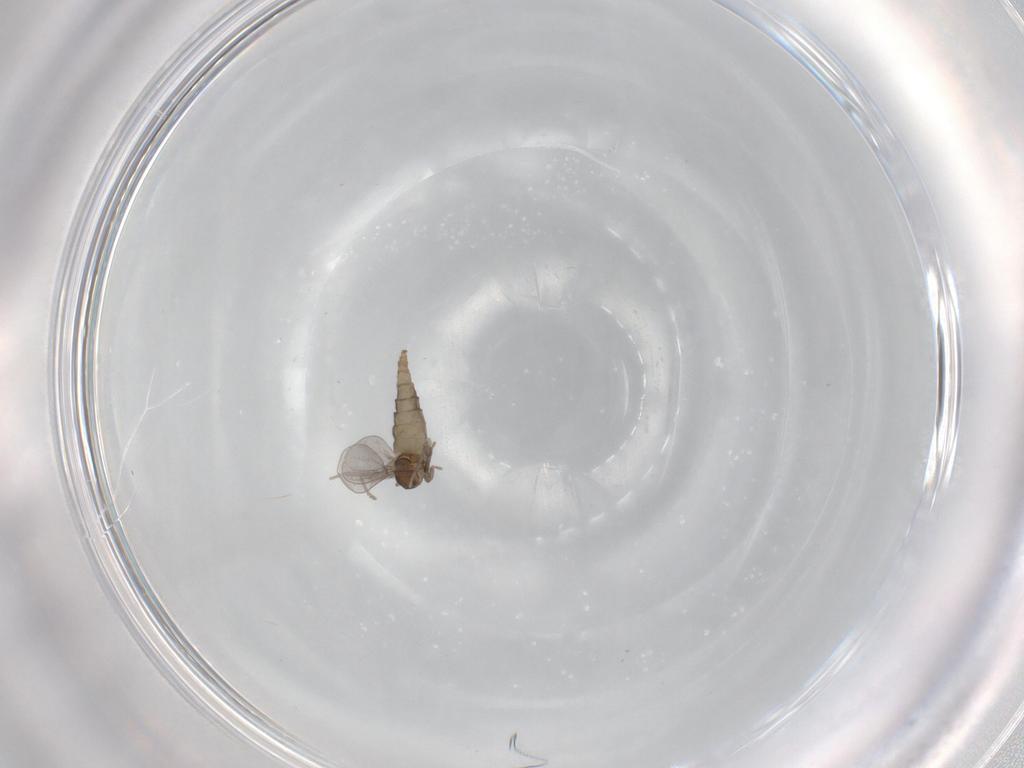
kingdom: Animalia
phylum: Arthropoda
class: Insecta
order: Diptera
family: Cecidomyiidae
